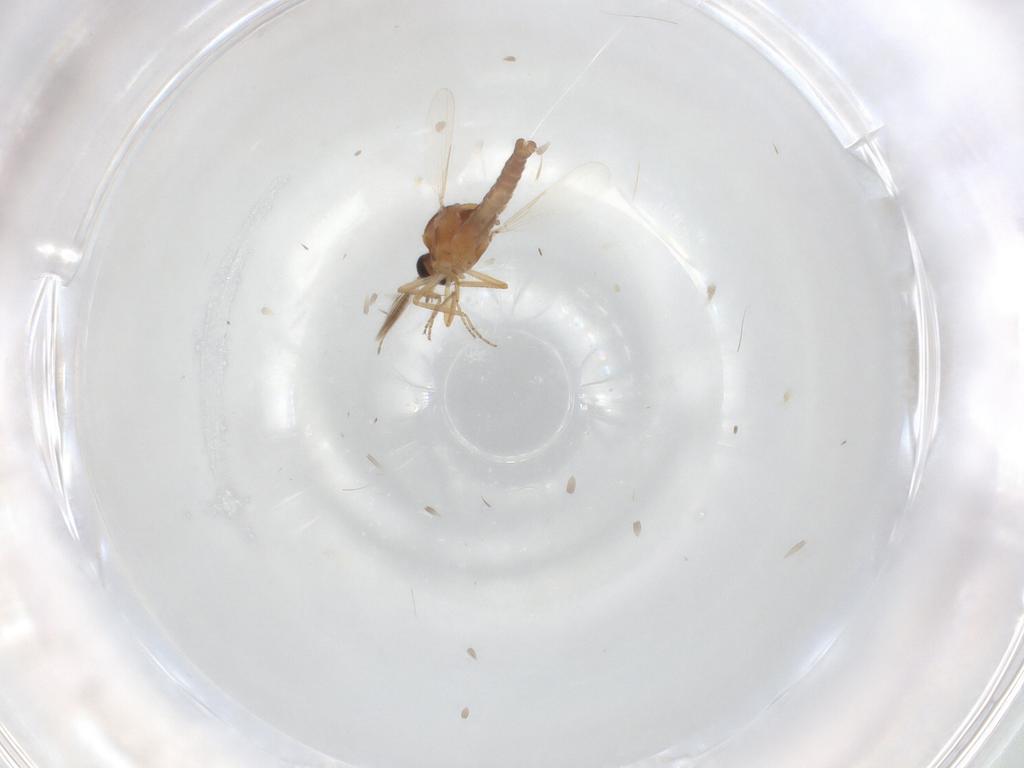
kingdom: Animalia
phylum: Arthropoda
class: Insecta
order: Diptera
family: Ceratopogonidae
